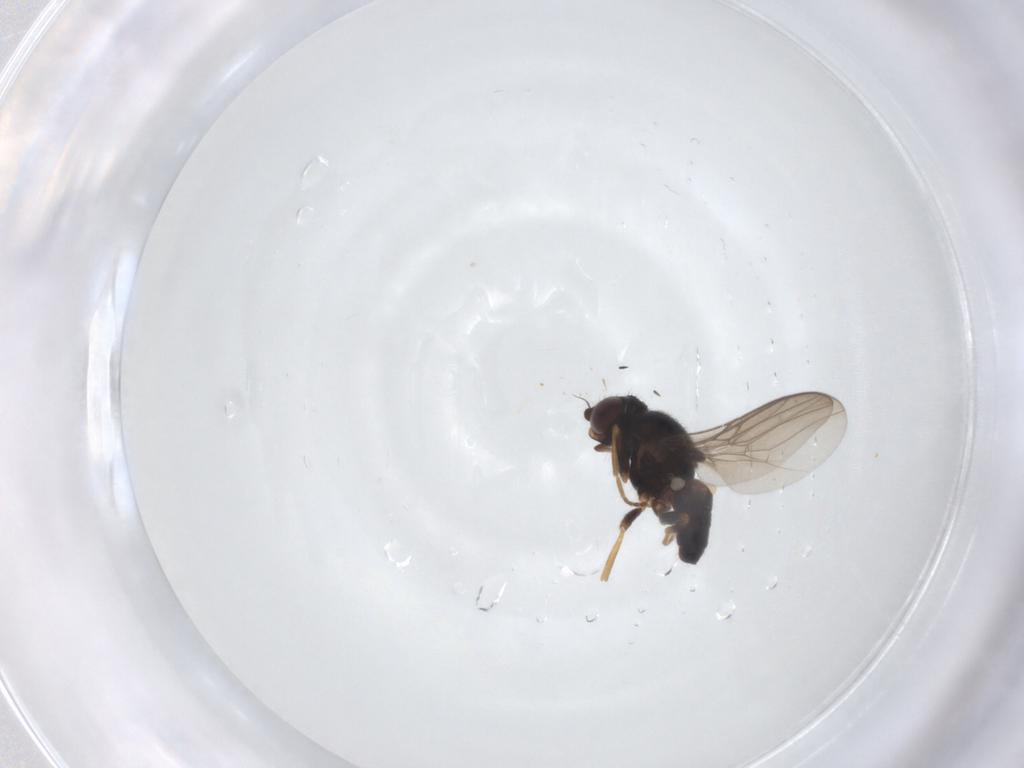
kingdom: Animalia
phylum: Arthropoda
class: Insecta
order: Diptera
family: Chloropidae
